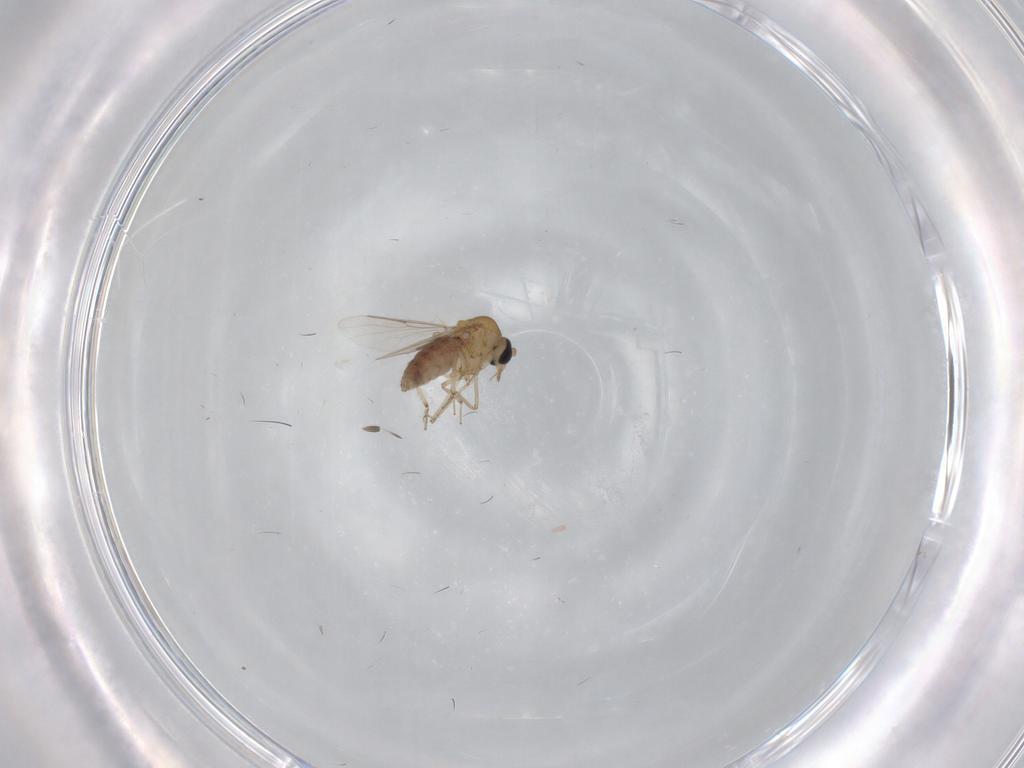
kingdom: Animalia
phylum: Arthropoda
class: Insecta
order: Diptera
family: Cecidomyiidae
